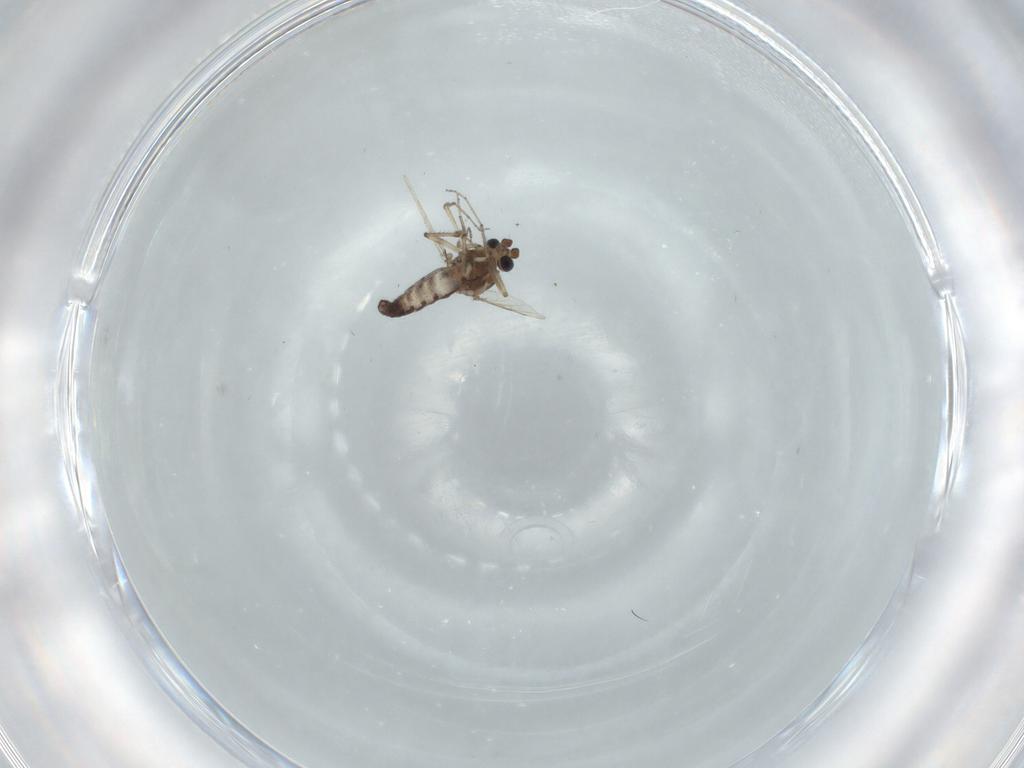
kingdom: Animalia
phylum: Arthropoda
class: Insecta
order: Diptera
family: Ceratopogonidae
